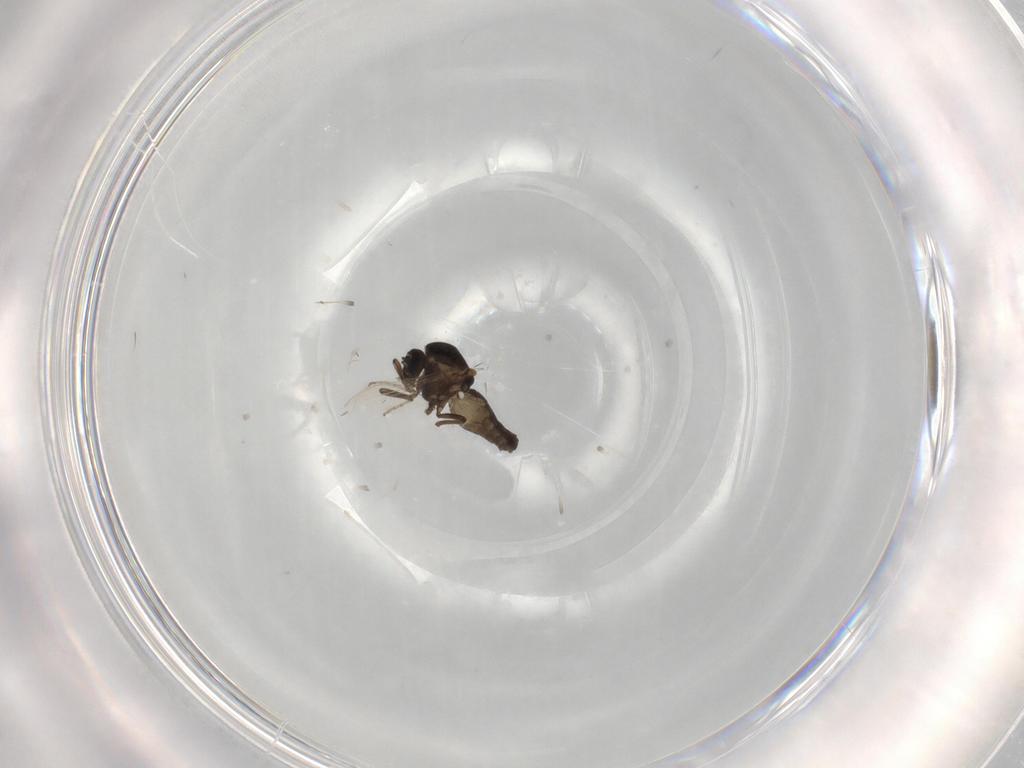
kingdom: Animalia
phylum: Arthropoda
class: Insecta
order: Diptera
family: Ceratopogonidae
